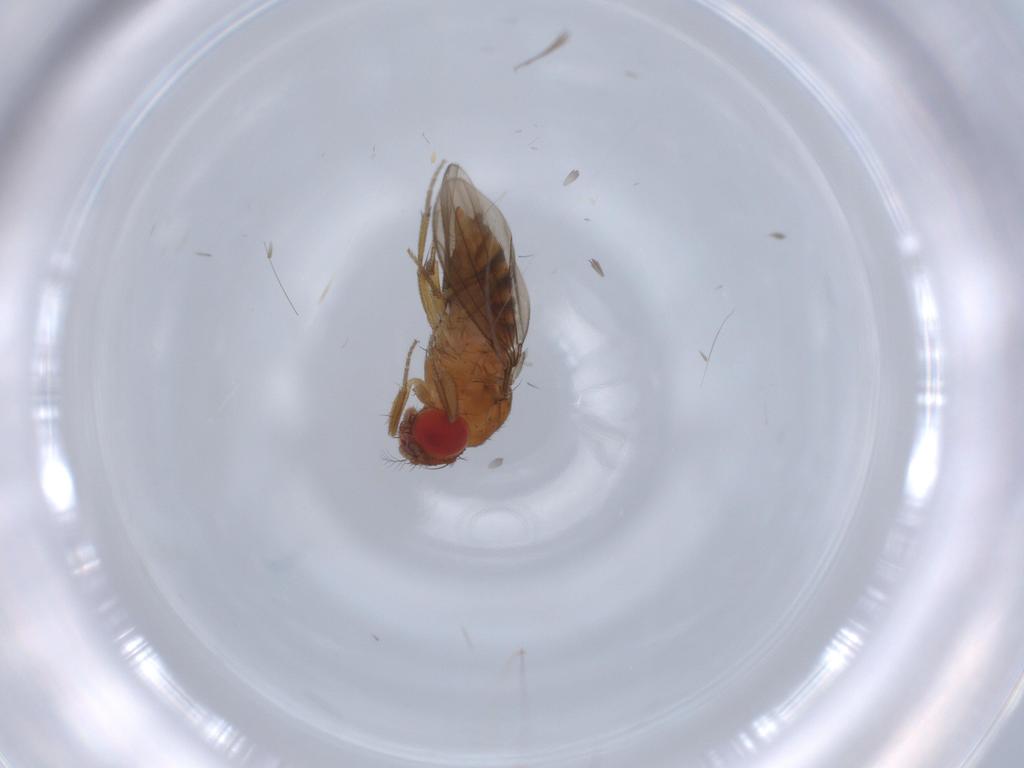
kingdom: Animalia
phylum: Arthropoda
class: Insecta
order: Diptera
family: Drosophilidae
